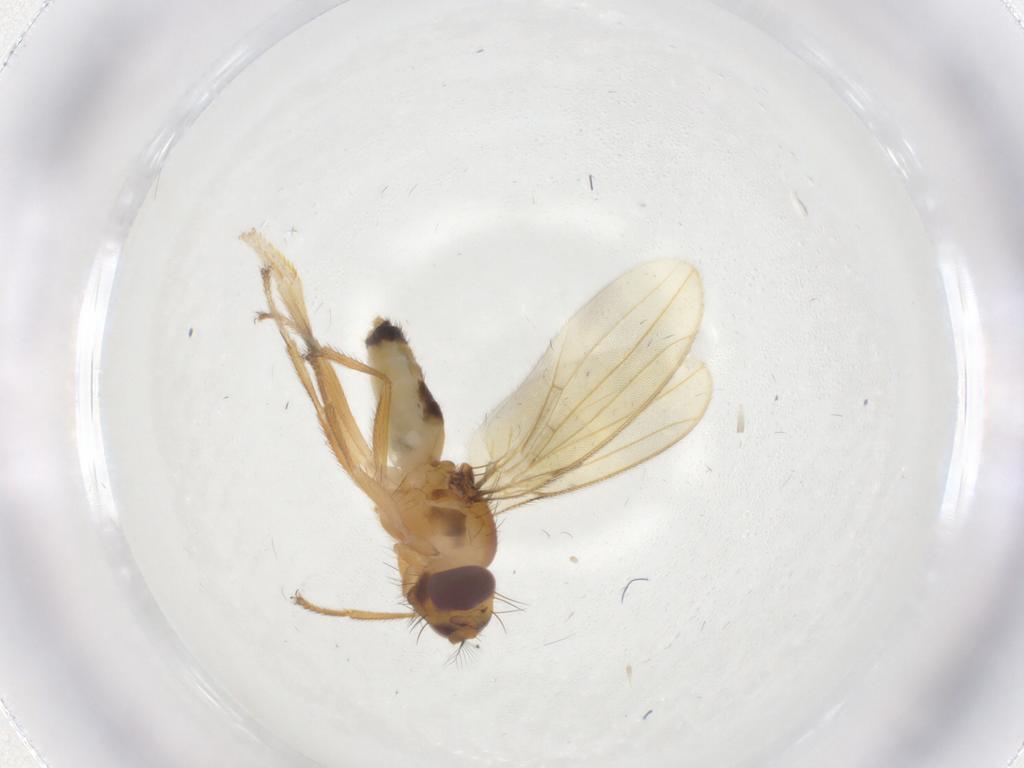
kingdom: Animalia
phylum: Arthropoda
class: Insecta
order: Diptera
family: Periscelididae
